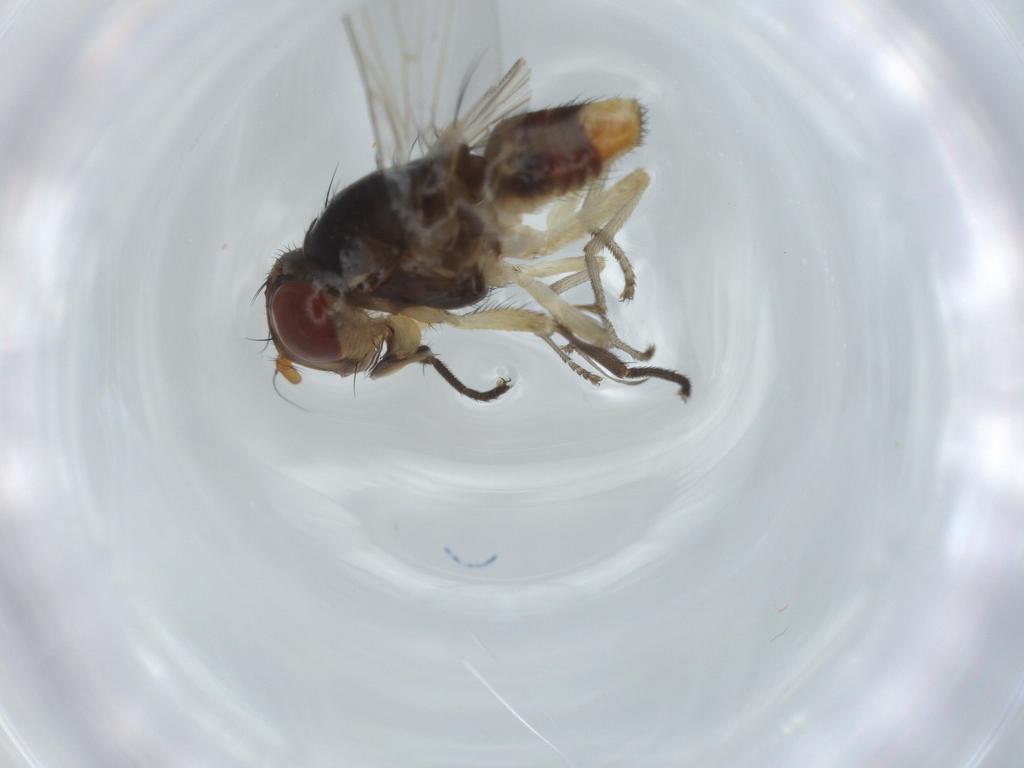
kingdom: Animalia
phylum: Arthropoda
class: Insecta
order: Diptera
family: Lauxaniidae
